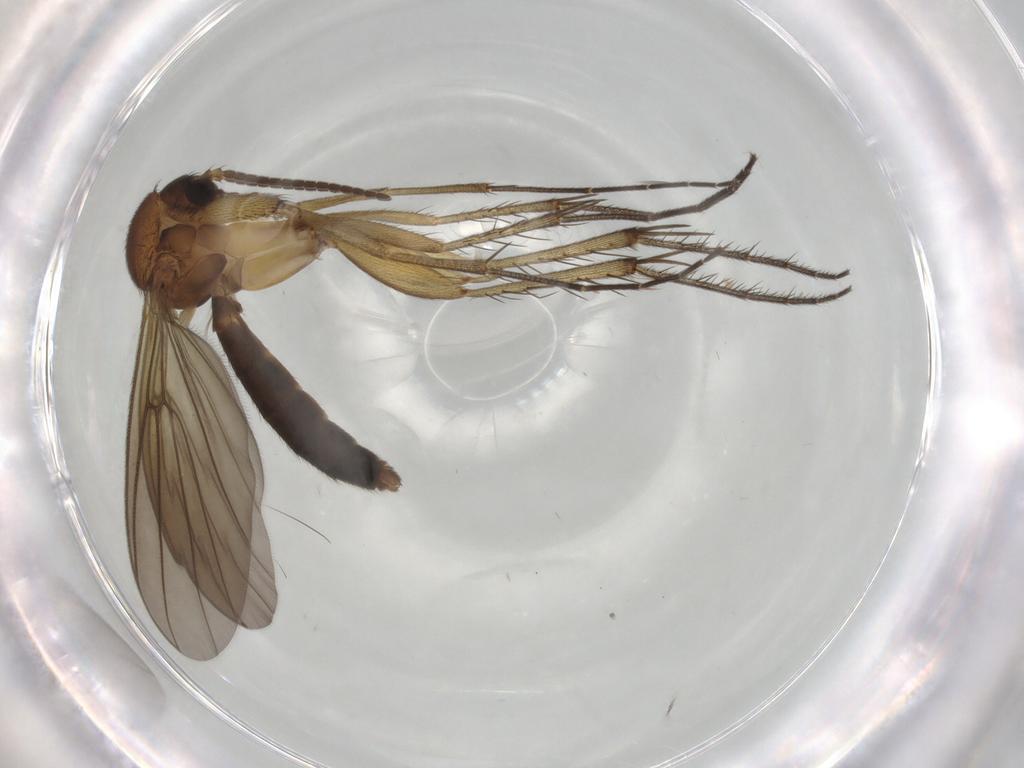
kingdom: Animalia
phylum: Arthropoda
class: Insecta
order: Diptera
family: Mycetophilidae
